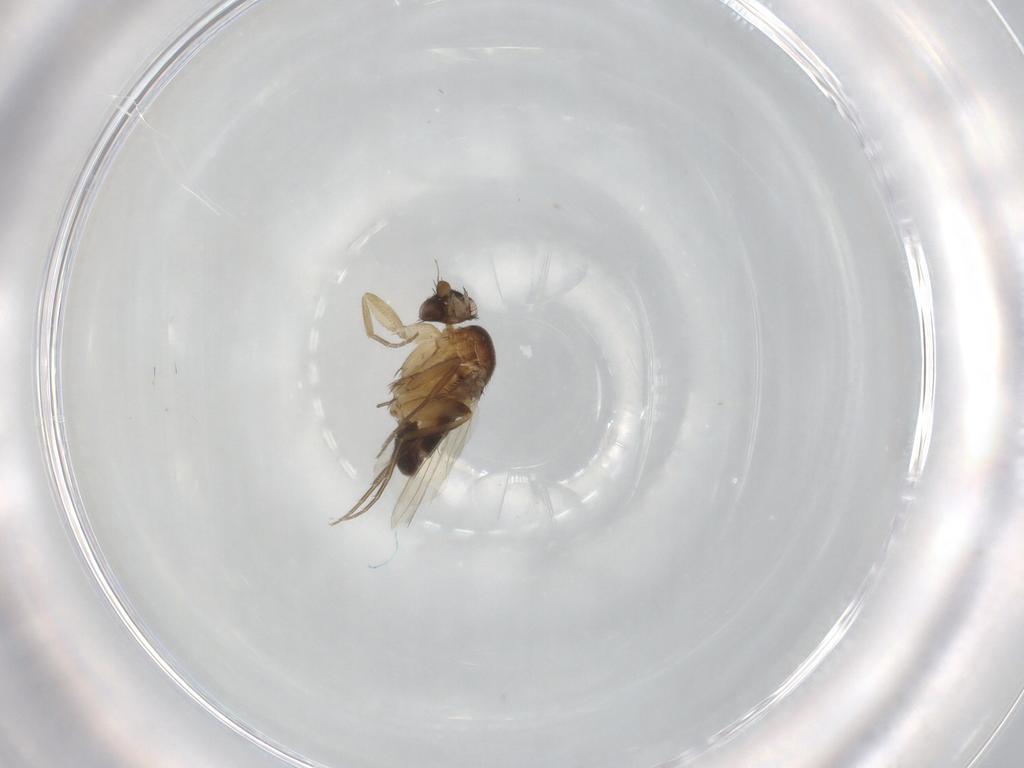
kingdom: Animalia
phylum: Arthropoda
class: Insecta
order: Diptera
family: Phoridae
